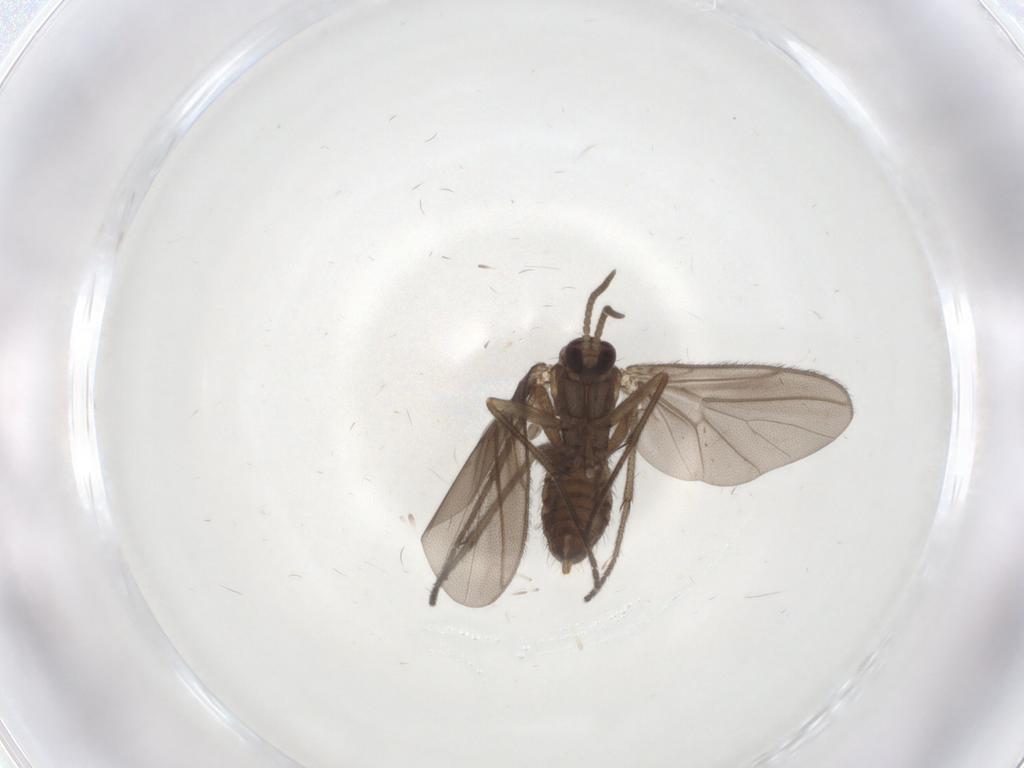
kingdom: Animalia
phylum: Arthropoda
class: Insecta
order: Diptera
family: Diadocidiidae
